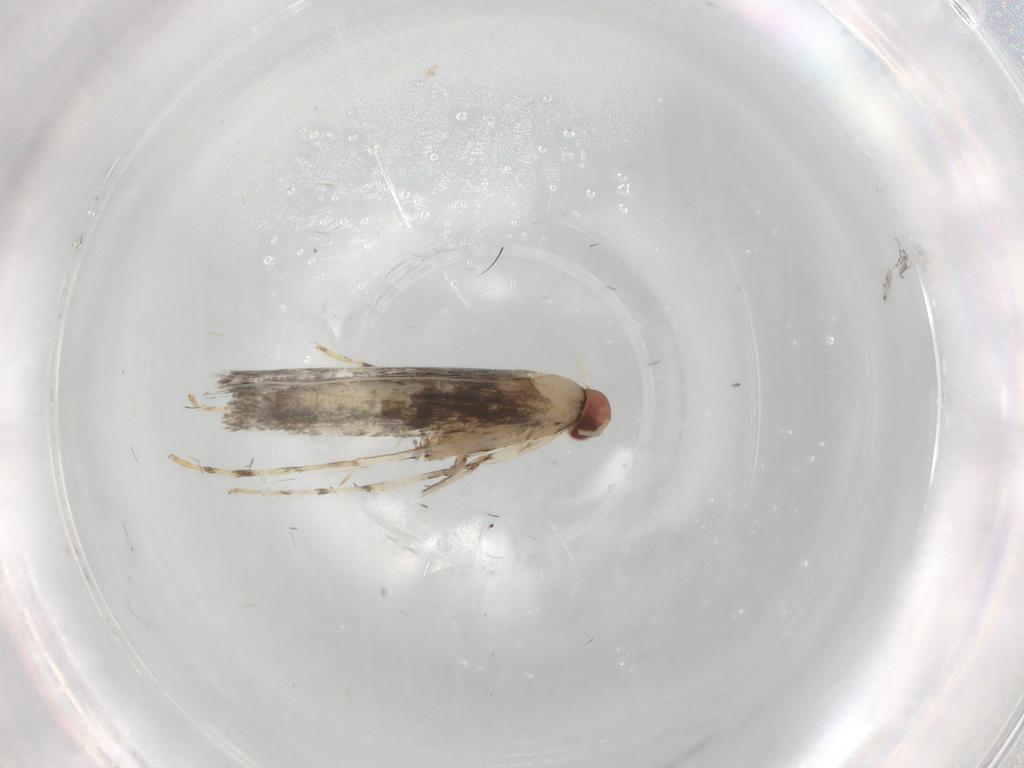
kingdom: Animalia
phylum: Arthropoda
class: Insecta
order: Lepidoptera
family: Gracillariidae
